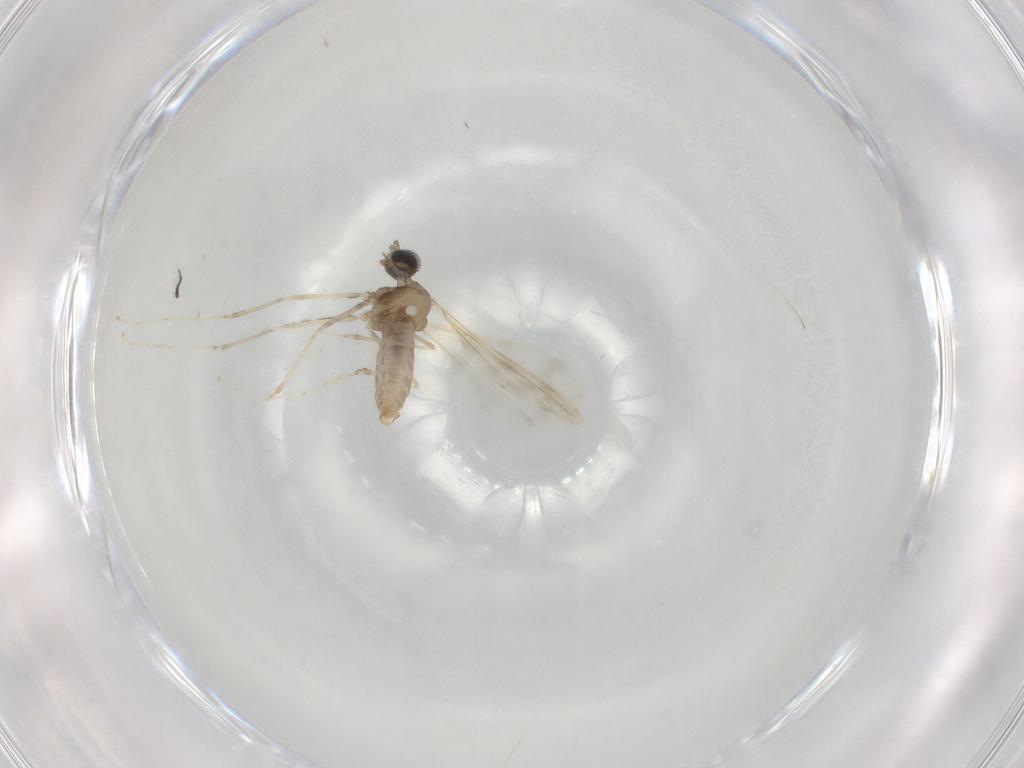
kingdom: Animalia
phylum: Arthropoda
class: Insecta
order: Diptera
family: Cecidomyiidae
